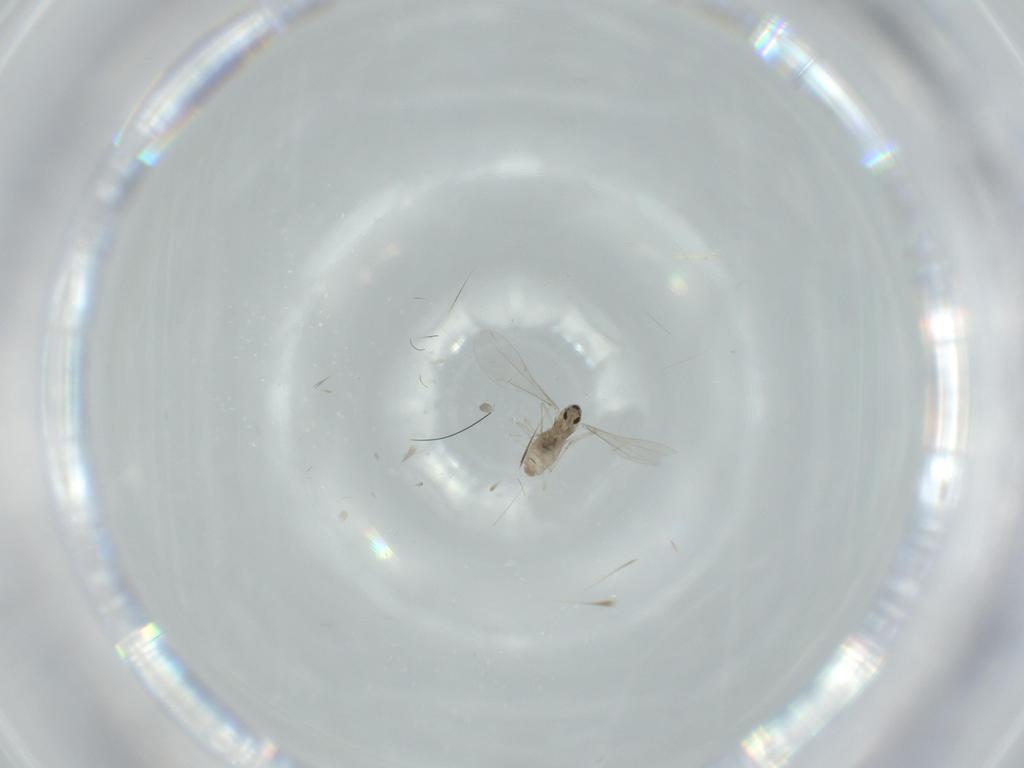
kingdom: Animalia
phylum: Arthropoda
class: Insecta
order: Diptera
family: Cecidomyiidae
